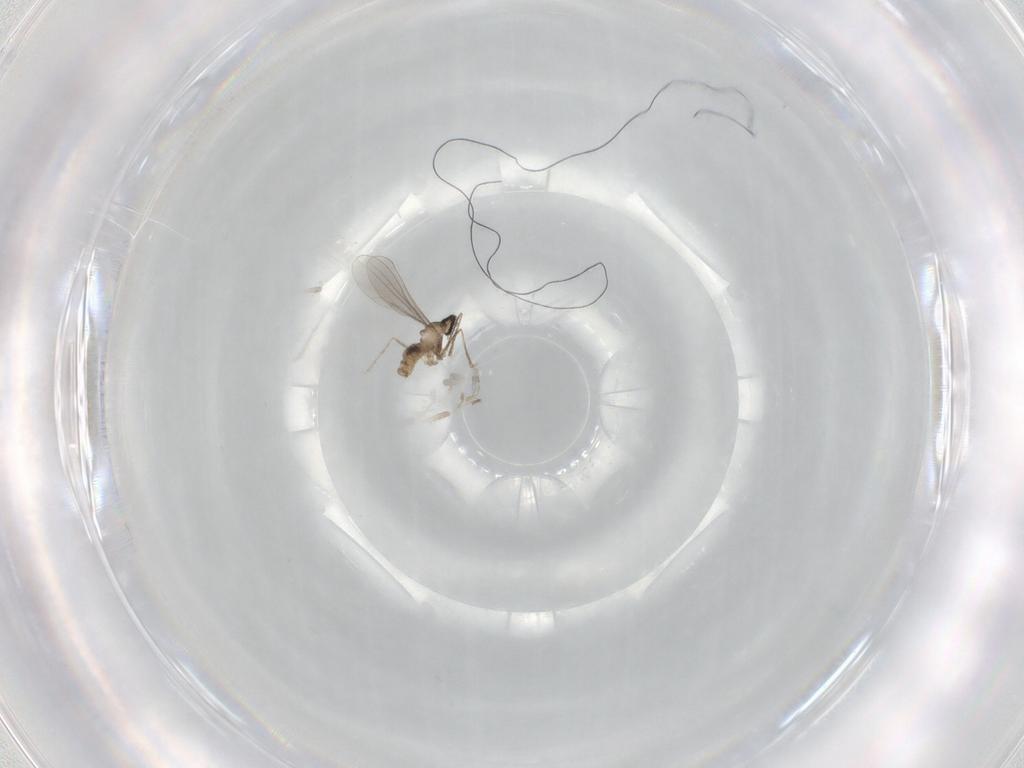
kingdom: Animalia
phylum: Arthropoda
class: Insecta
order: Diptera
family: Cecidomyiidae
